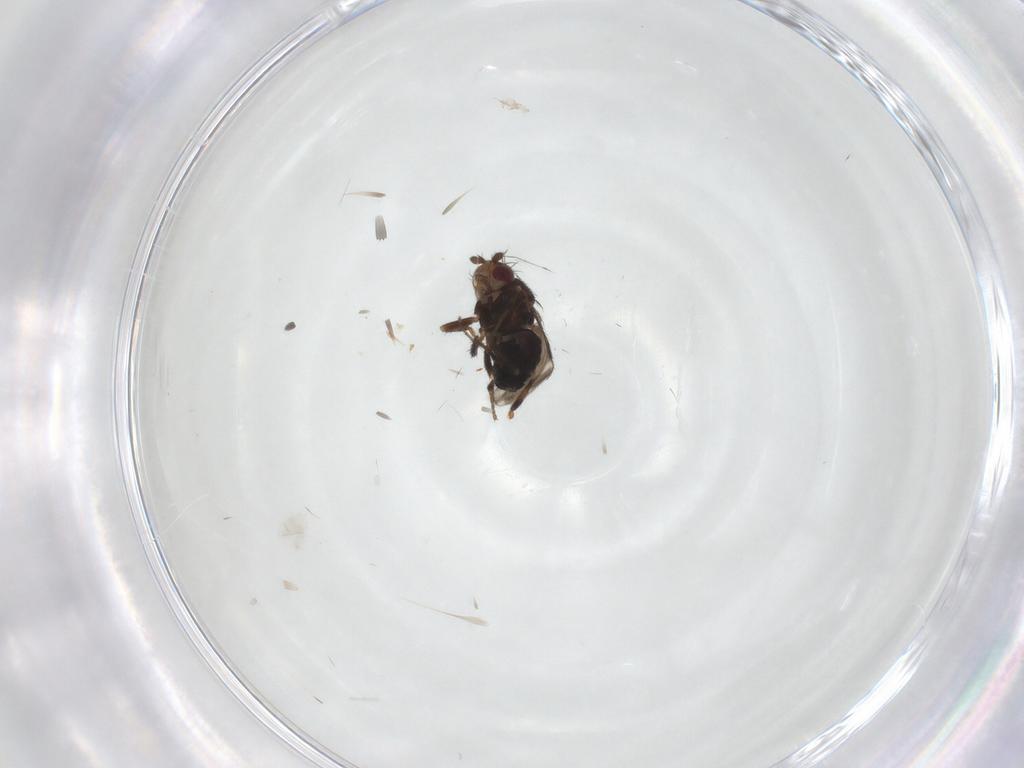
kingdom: Animalia
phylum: Arthropoda
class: Insecta
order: Diptera
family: Sphaeroceridae
